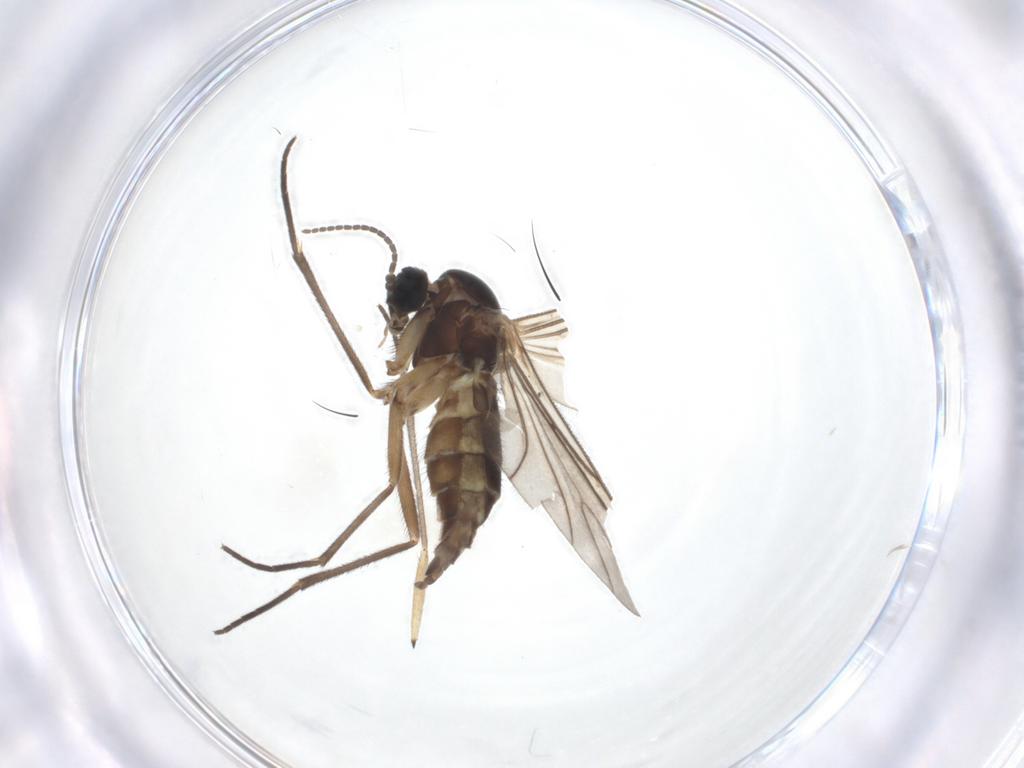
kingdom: Animalia
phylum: Arthropoda
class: Insecta
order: Diptera
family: Sciaridae
